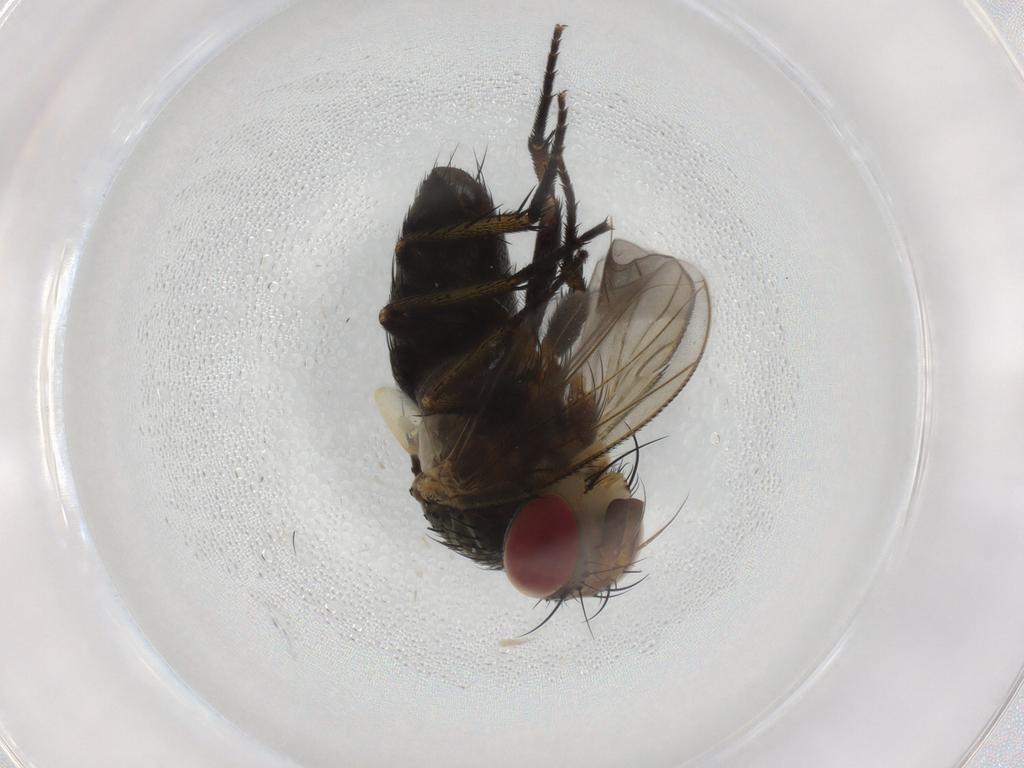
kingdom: Animalia
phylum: Arthropoda
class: Insecta
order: Diptera
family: Tachinidae
